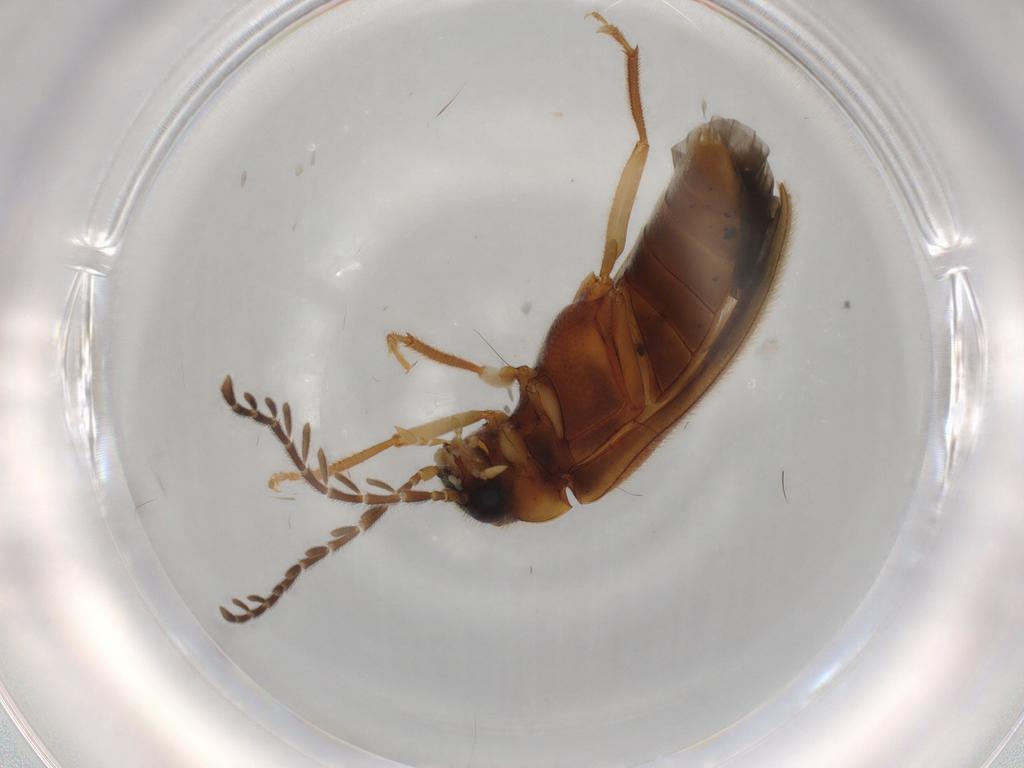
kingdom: Animalia
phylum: Arthropoda
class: Insecta
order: Coleoptera
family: Ptilodactylidae
